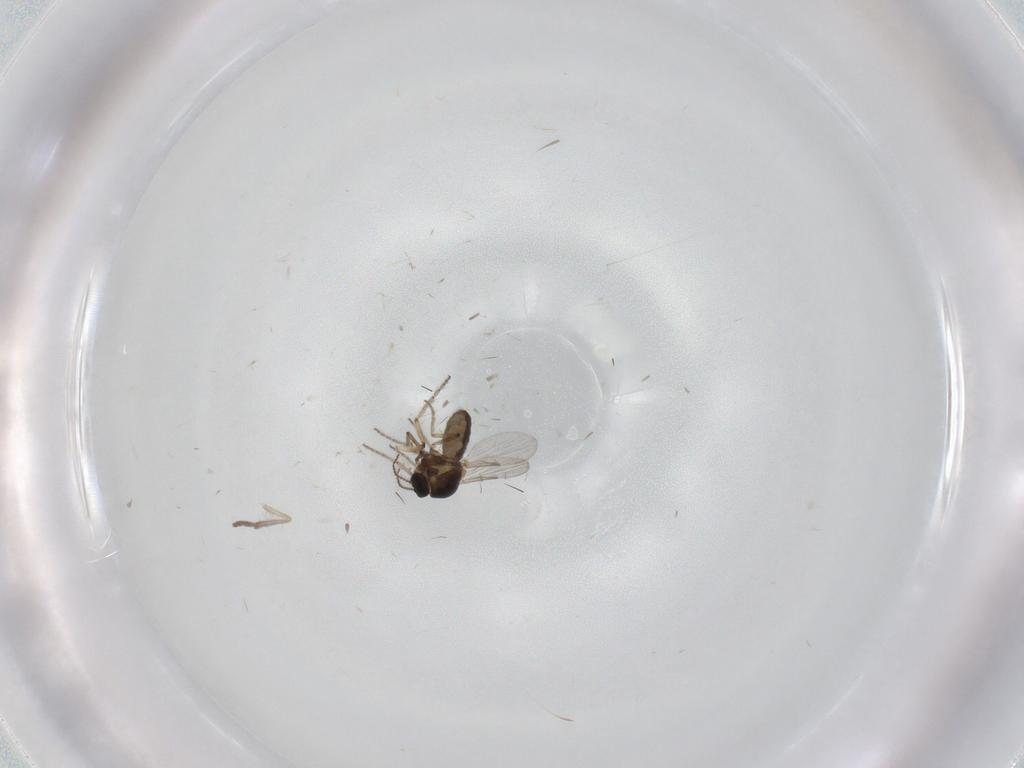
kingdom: Animalia
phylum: Arthropoda
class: Insecta
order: Diptera
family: Ceratopogonidae
